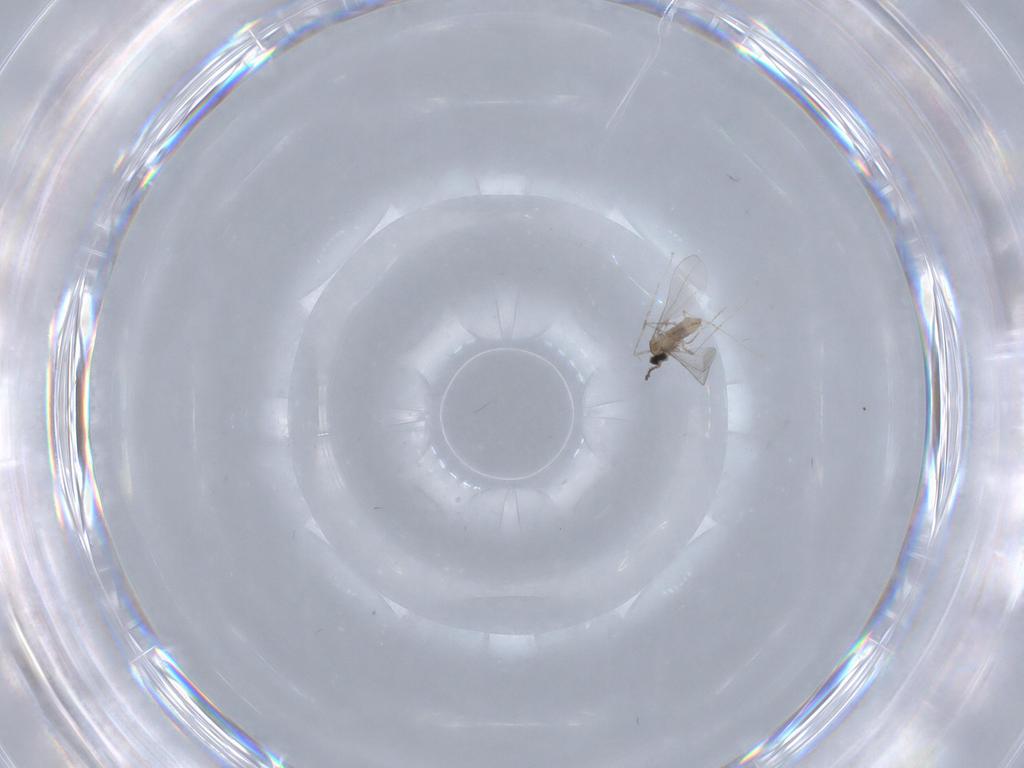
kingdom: Animalia
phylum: Arthropoda
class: Insecta
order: Diptera
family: Cecidomyiidae
